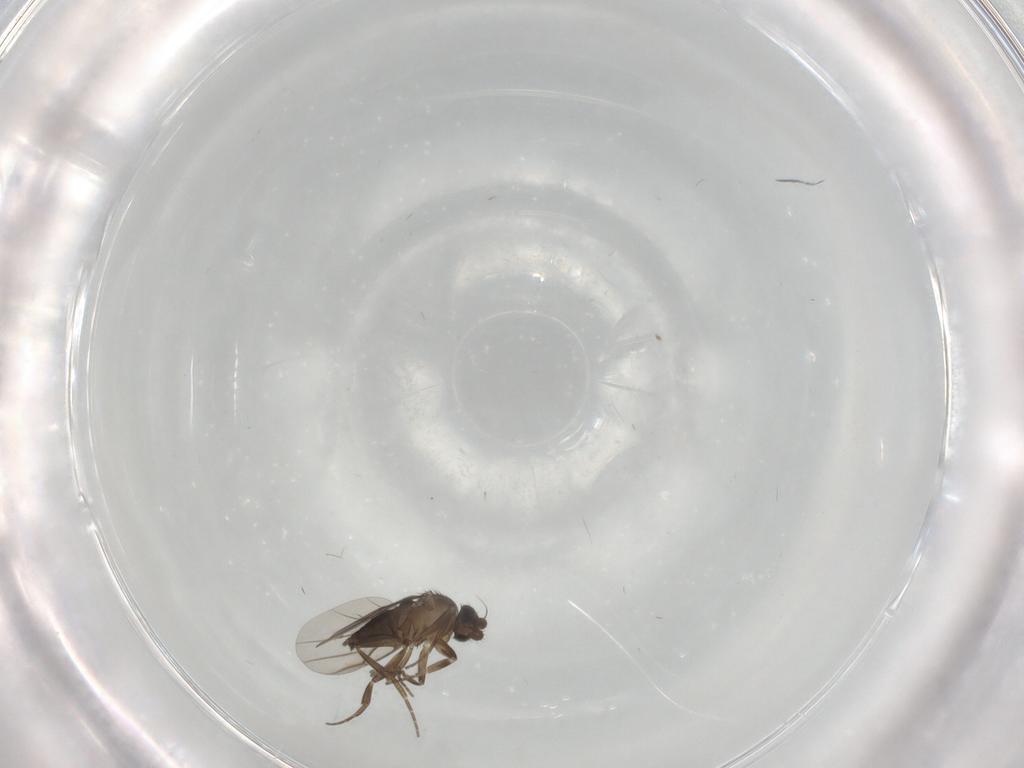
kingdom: Animalia
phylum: Arthropoda
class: Insecta
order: Diptera
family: Phoridae
